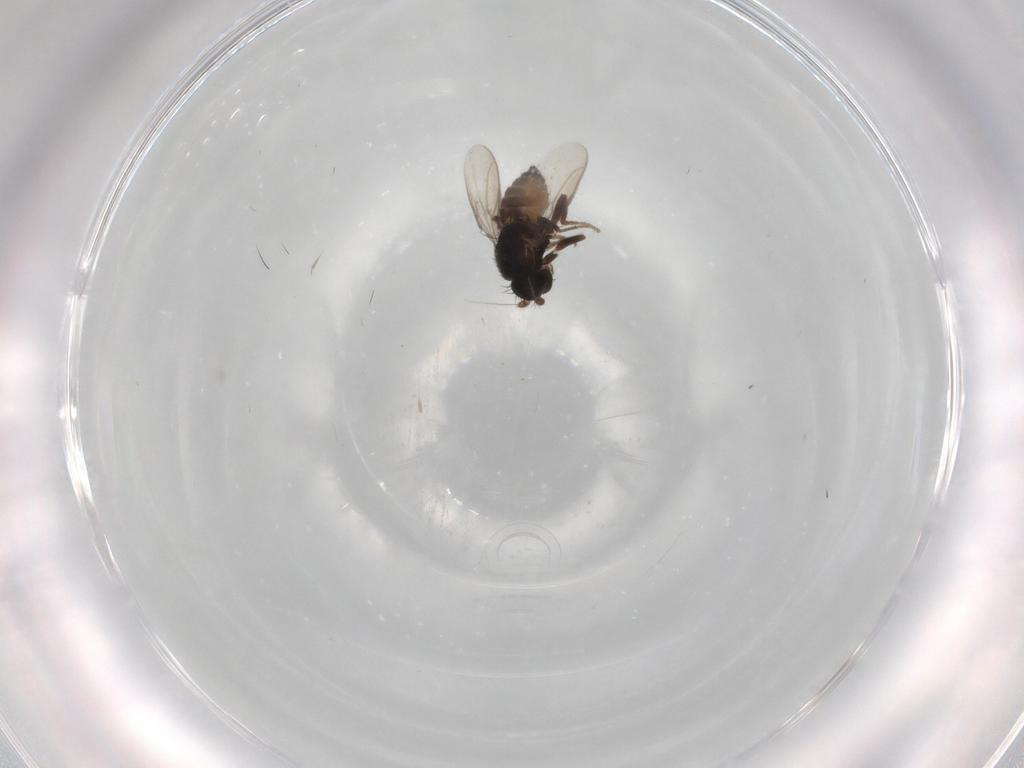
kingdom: Animalia
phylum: Arthropoda
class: Insecta
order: Diptera
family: Sphaeroceridae
